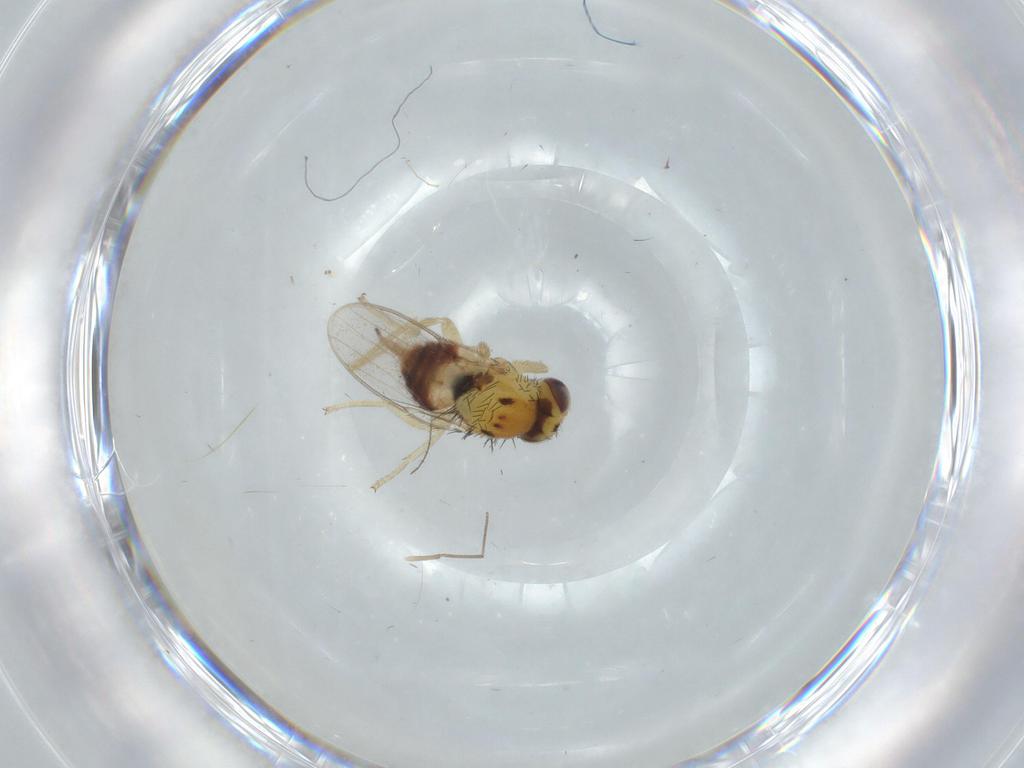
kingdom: Animalia
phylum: Arthropoda
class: Insecta
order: Diptera
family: Chloropidae
